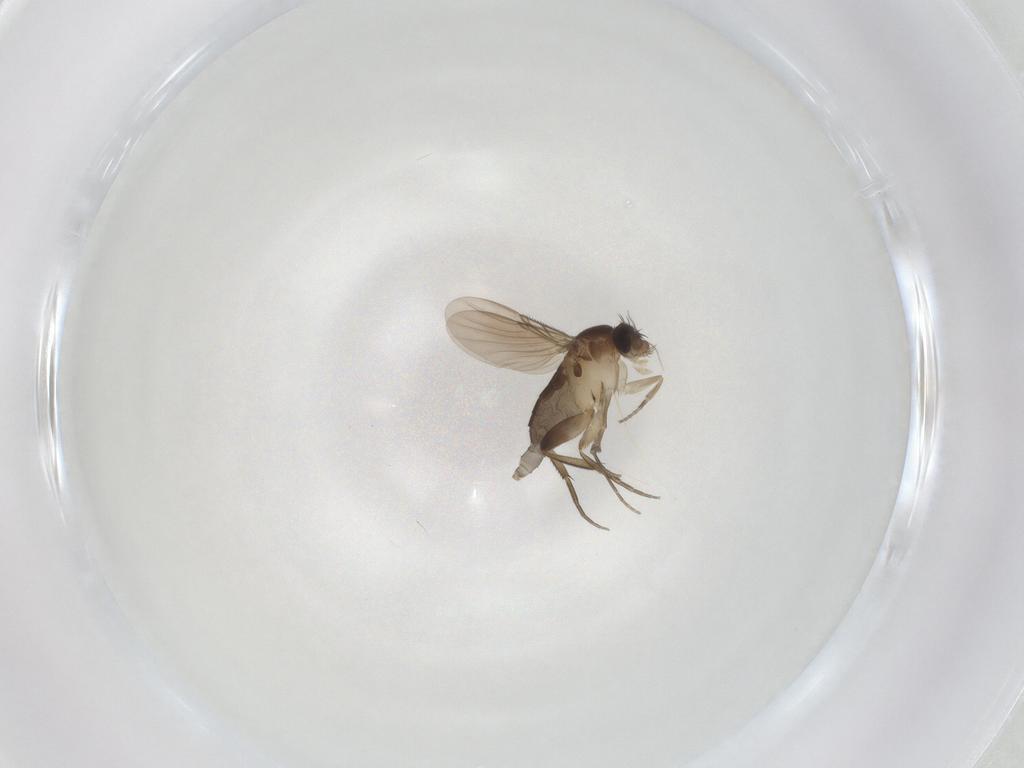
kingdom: Animalia
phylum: Arthropoda
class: Insecta
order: Diptera
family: Phoridae
